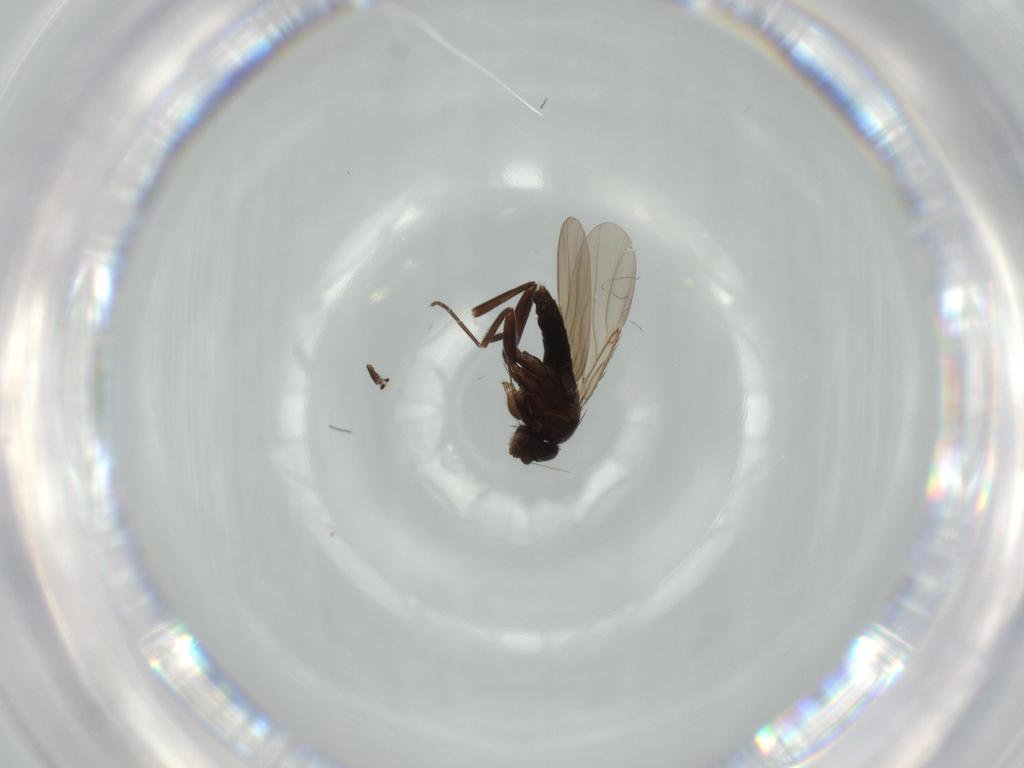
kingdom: Animalia
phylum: Arthropoda
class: Insecta
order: Diptera
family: Phoridae
